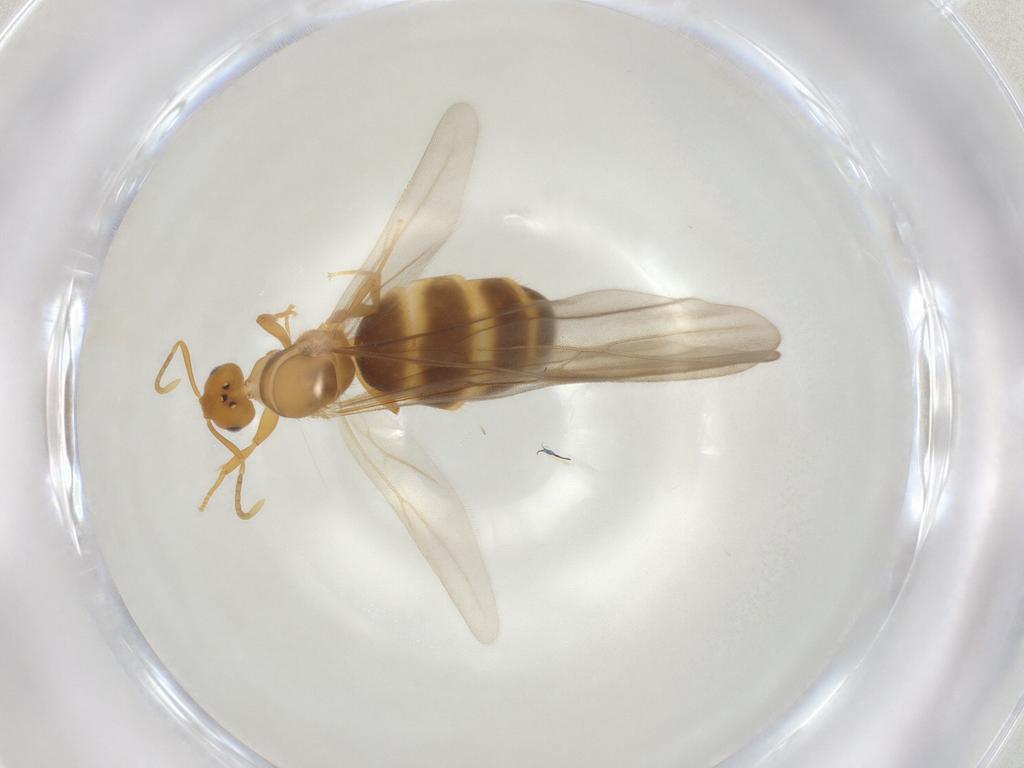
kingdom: Animalia
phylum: Arthropoda
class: Insecta
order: Hymenoptera
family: Formicidae
